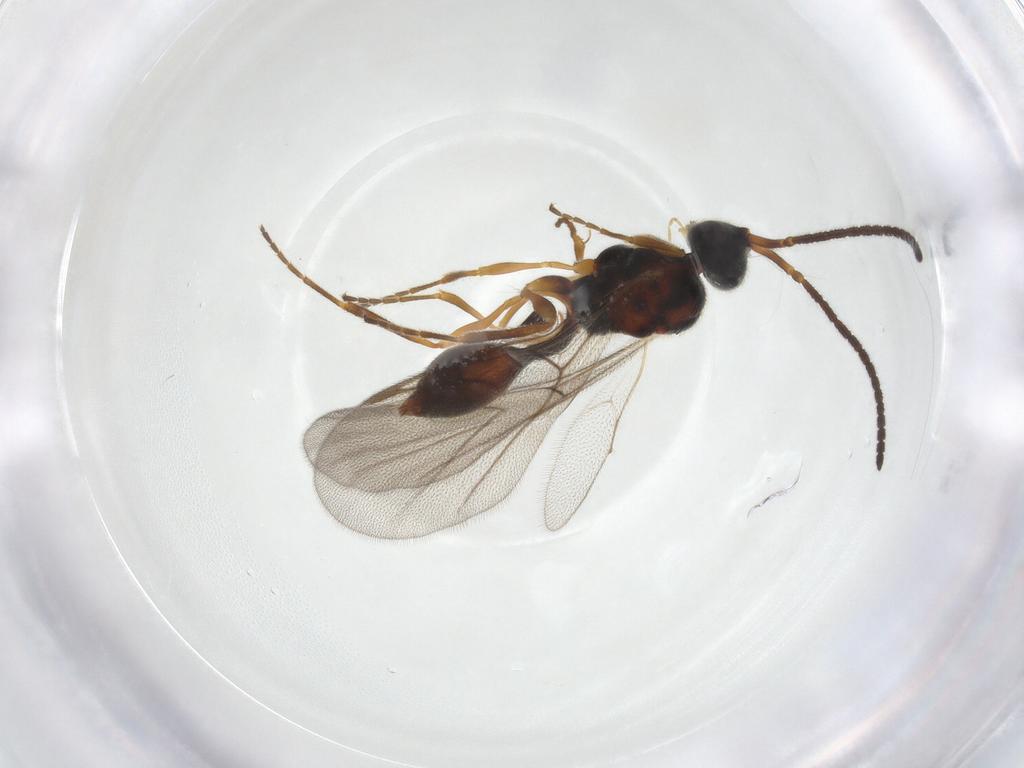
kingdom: Animalia
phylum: Arthropoda
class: Insecta
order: Hymenoptera
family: Diapriidae
